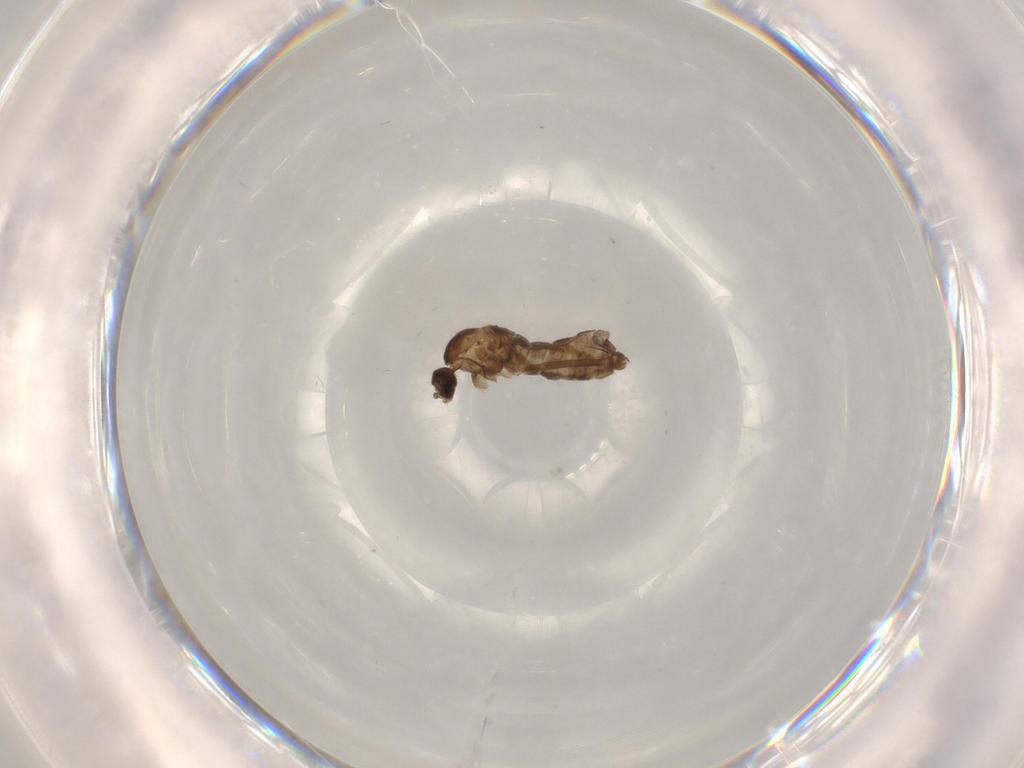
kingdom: Animalia
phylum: Arthropoda
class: Insecta
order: Diptera
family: Cecidomyiidae
